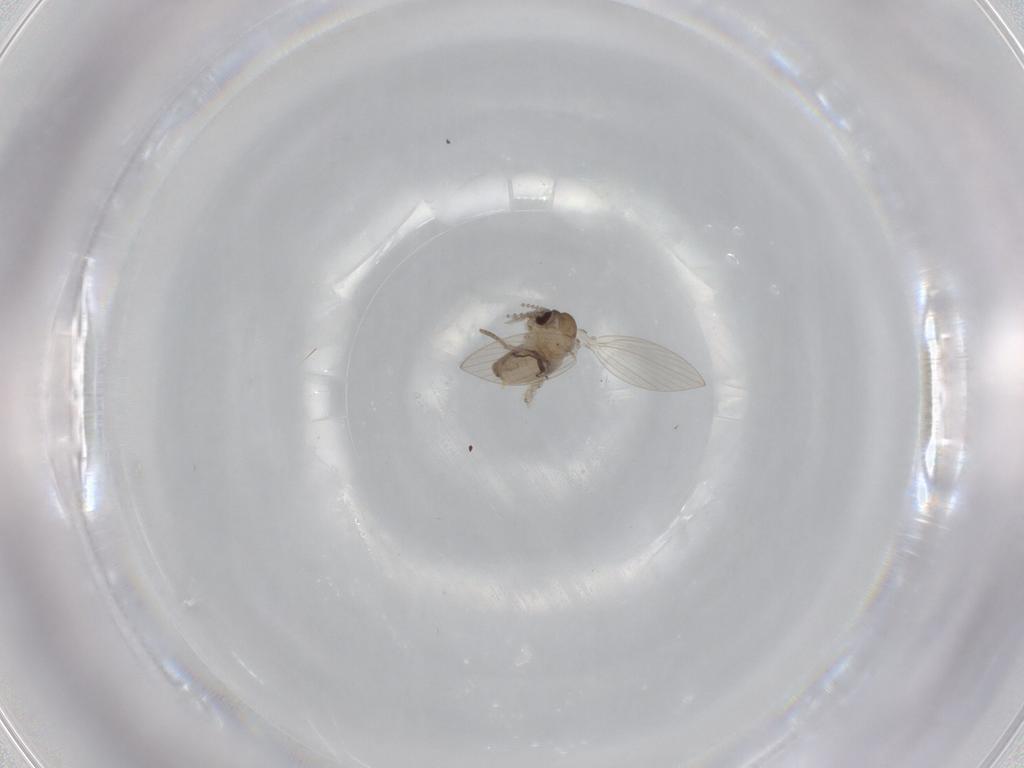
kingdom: Animalia
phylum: Arthropoda
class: Insecta
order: Diptera
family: Psychodidae
